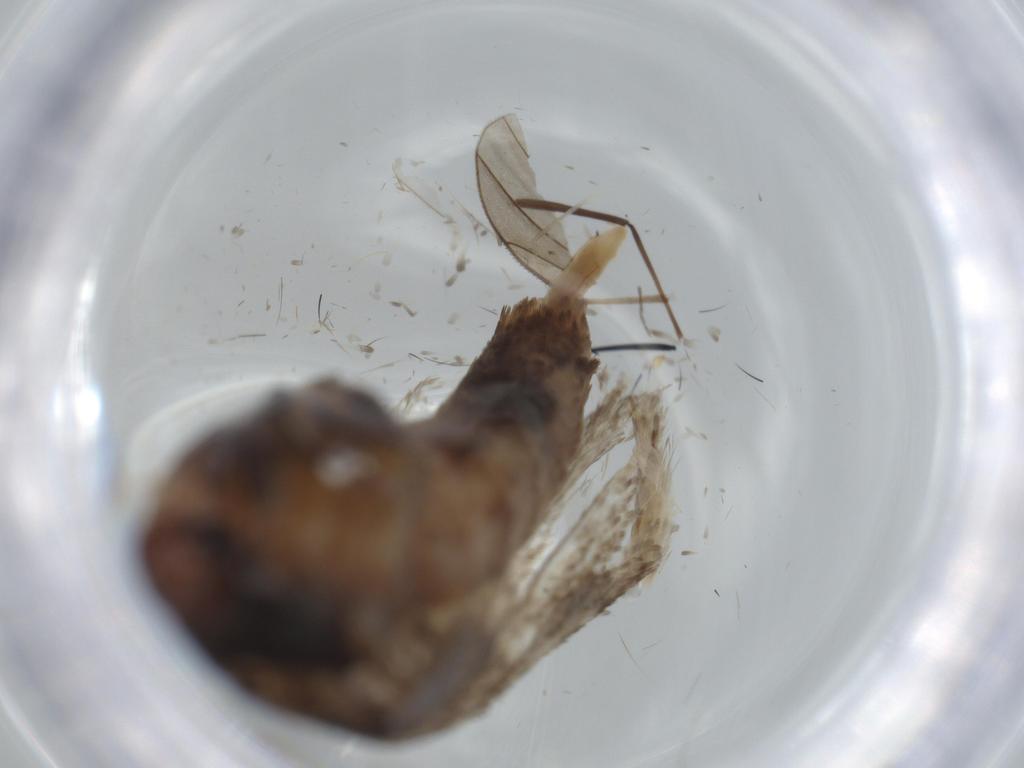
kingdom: Animalia
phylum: Arthropoda
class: Insecta
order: Lepidoptera
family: Gelechiidae
